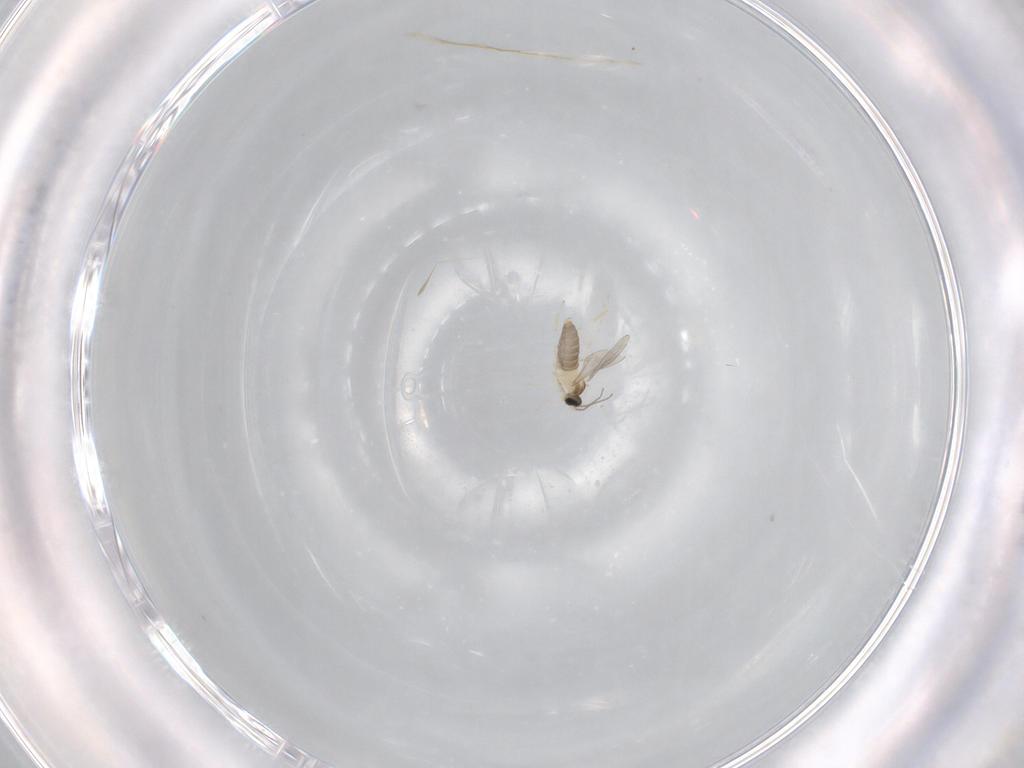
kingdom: Animalia
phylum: Arthropoda
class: Insecta
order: Diptera
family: Cecidomyiidae
